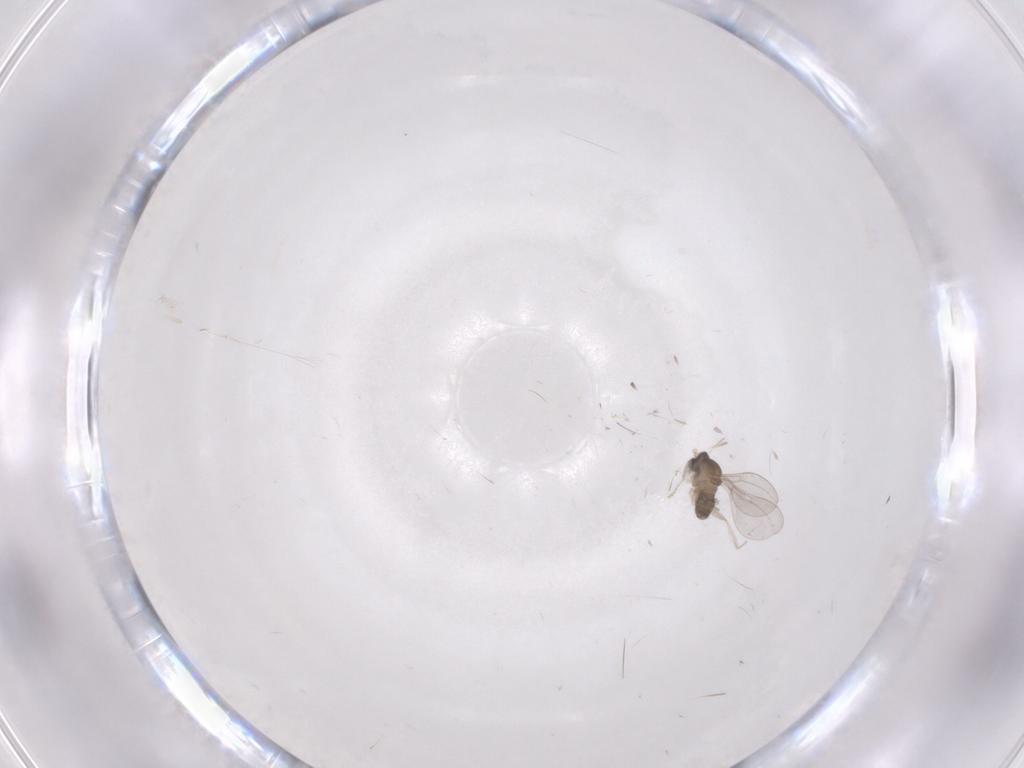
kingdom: Animalia
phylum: Arthropoda
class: Insecta
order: Diptera
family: Cecidomyiidae
